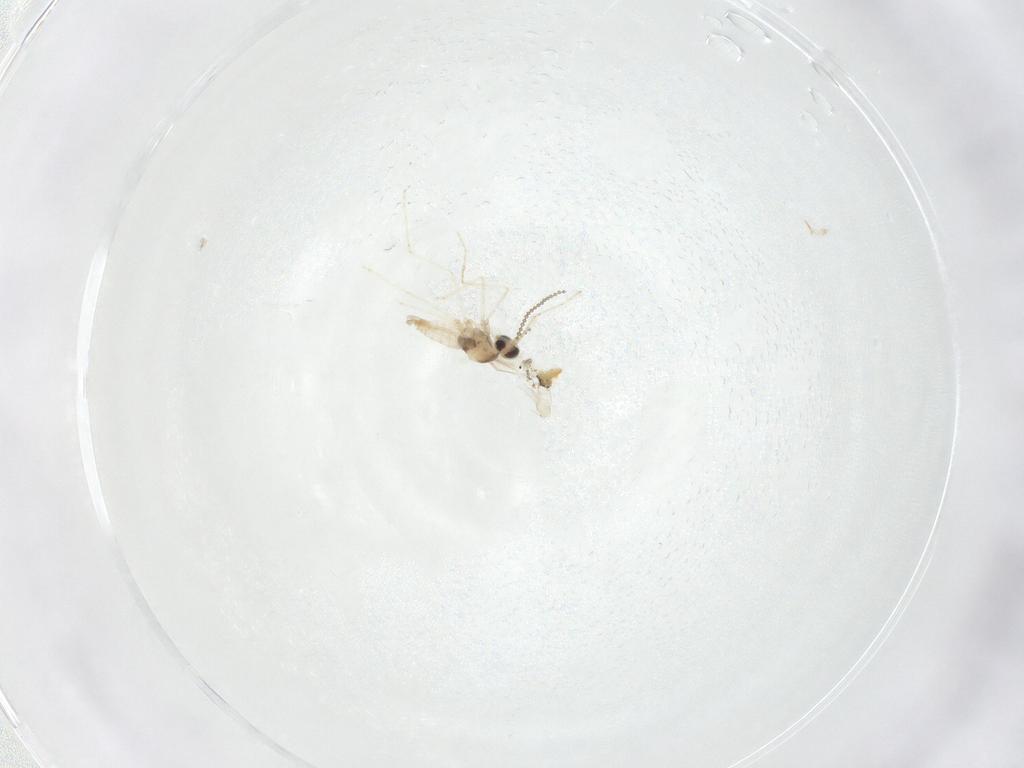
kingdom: Animalia
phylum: Arthropoda
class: Insecta
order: Diptera
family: Cecidomyiidae
